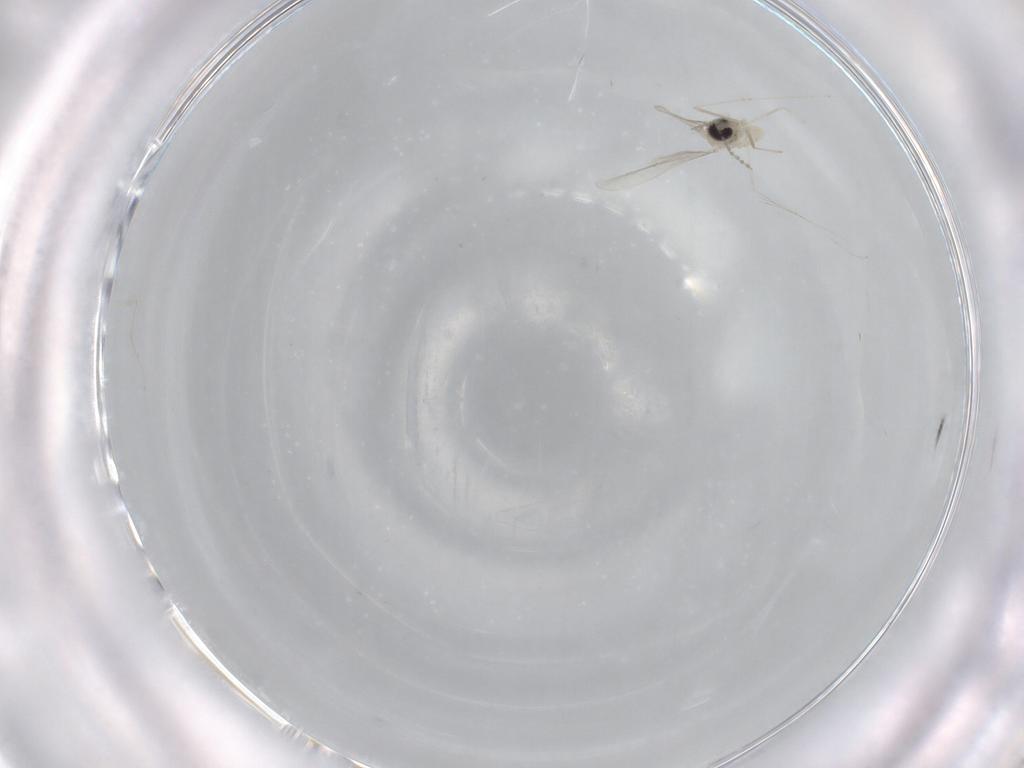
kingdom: Animalia
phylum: Arthropoda
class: Insecta
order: Diptera
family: Cecidomyiidae
